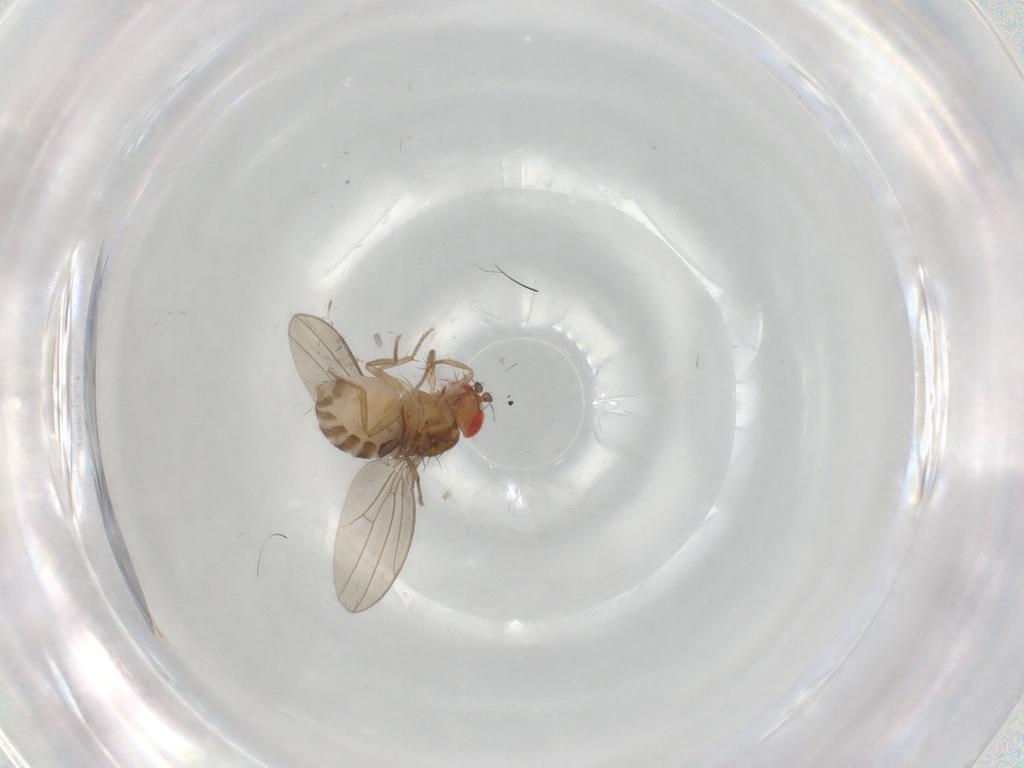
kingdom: Animalia
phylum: Arthropoda
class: Insecta
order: Diptera
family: Drosophilidae
